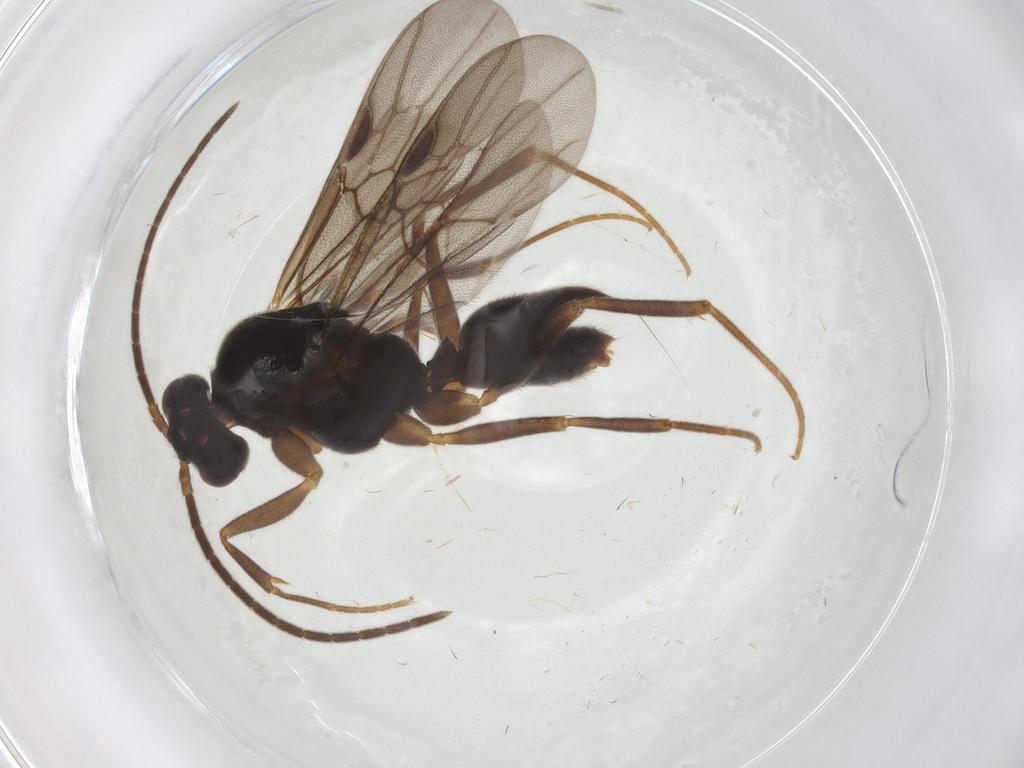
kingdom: Animalia
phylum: Arthropoda
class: Insecta
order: Hymenoptera
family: Formicidae
